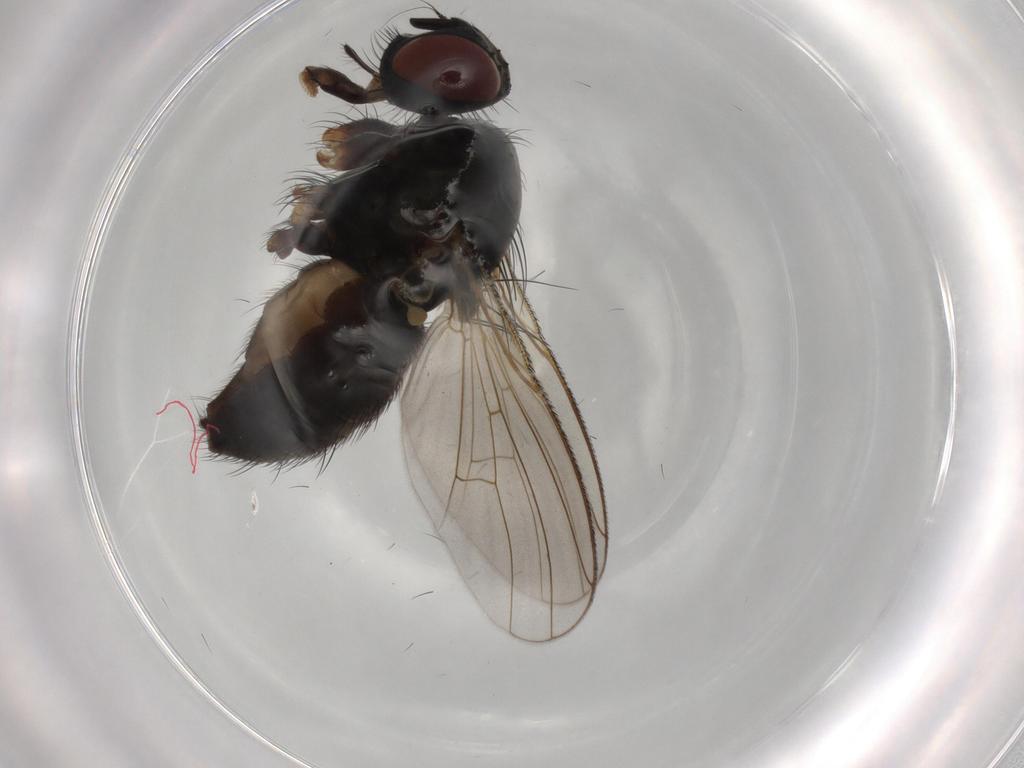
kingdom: Animalia
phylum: Arthropoda
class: Insecta
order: Diptera
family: Muscidae
